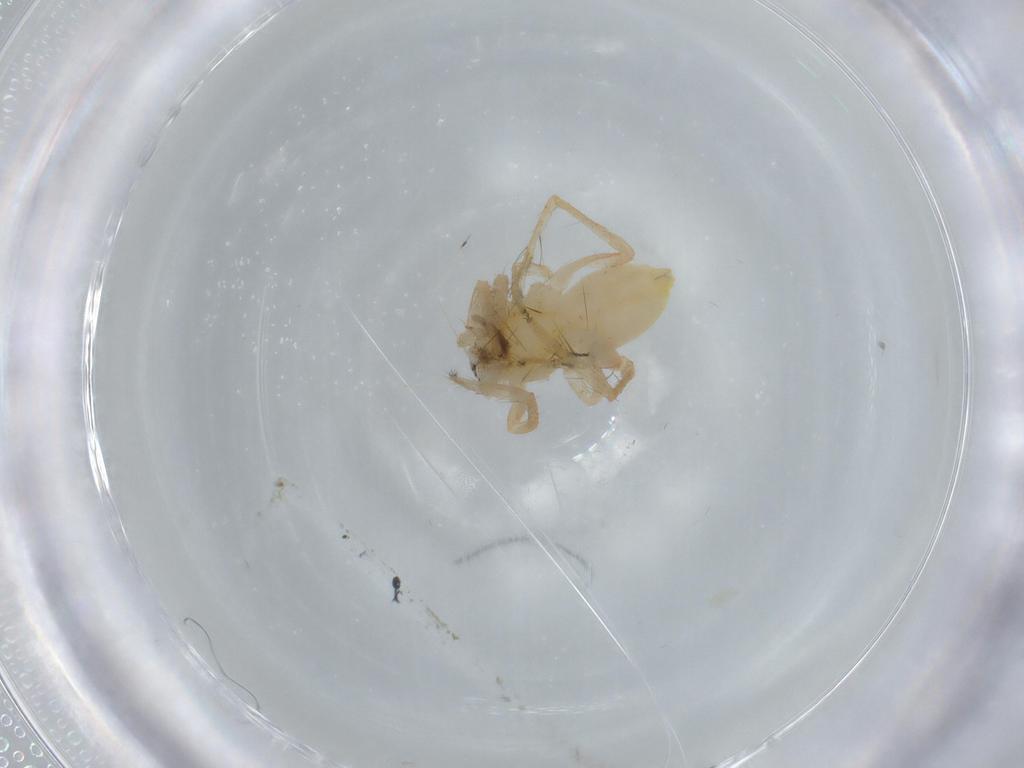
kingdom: Animalia
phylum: Arthropoda
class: Arachnida
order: Araneae
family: Anyphaenidae
